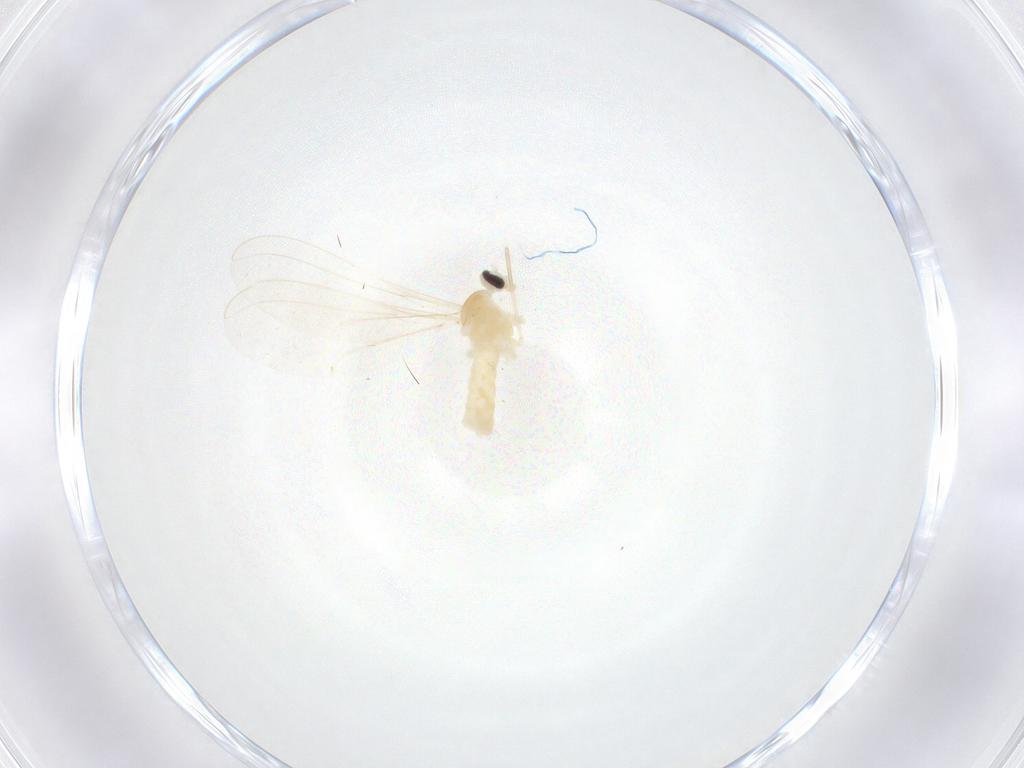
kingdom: Animalia
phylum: Arthropoda
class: Insecta
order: Diptera
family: Cecidomyiidae
